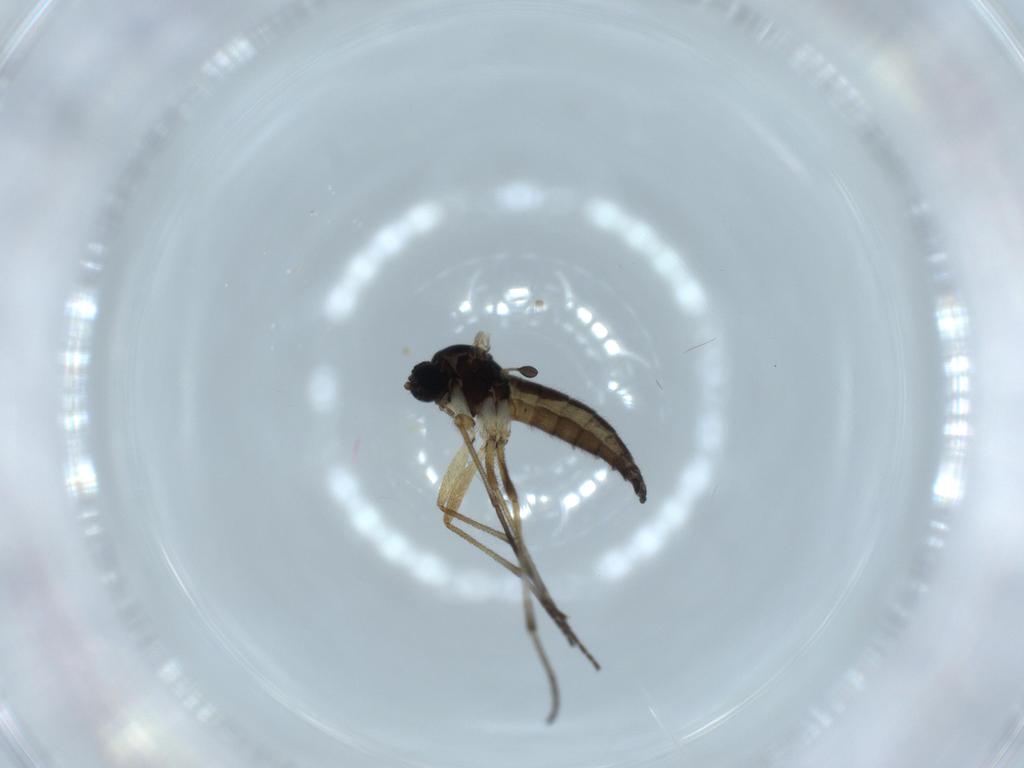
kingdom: Animalia
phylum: Arthropoda
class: Insecta
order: Diptera
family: Sciaridae
